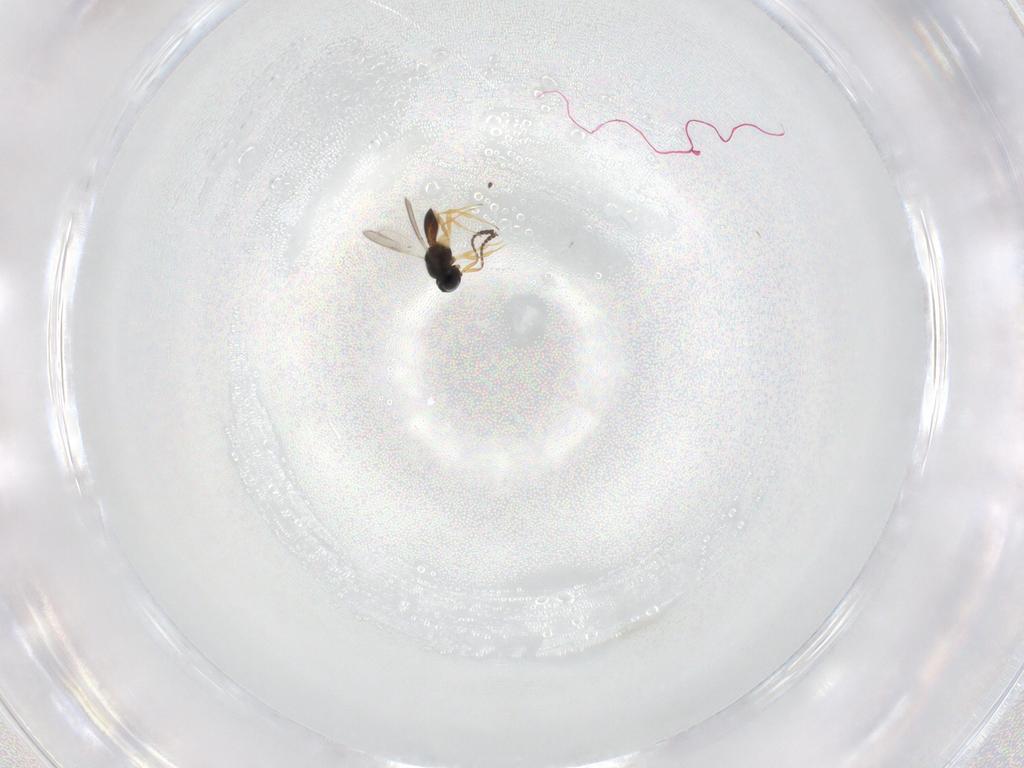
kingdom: Animalia
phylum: Arthropoda
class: Insecta
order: Hymenoptera
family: Scelionidae
